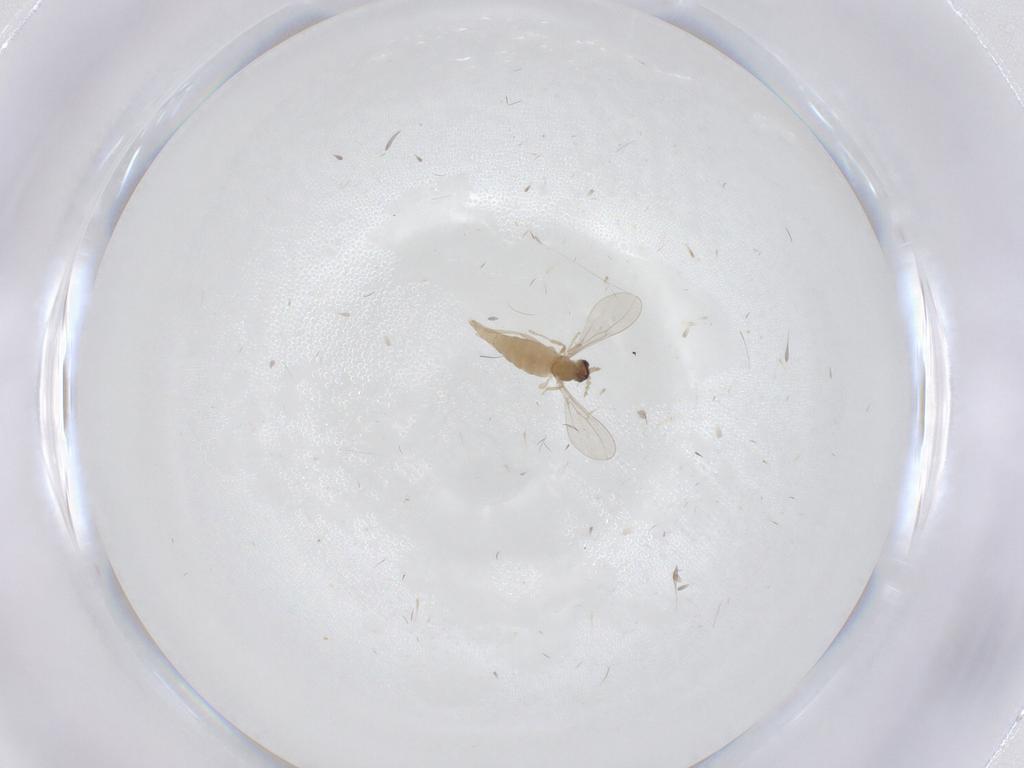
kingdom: Animalia
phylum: Arthropoda
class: Insecta
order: Diptera
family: Cecidomyiidae
